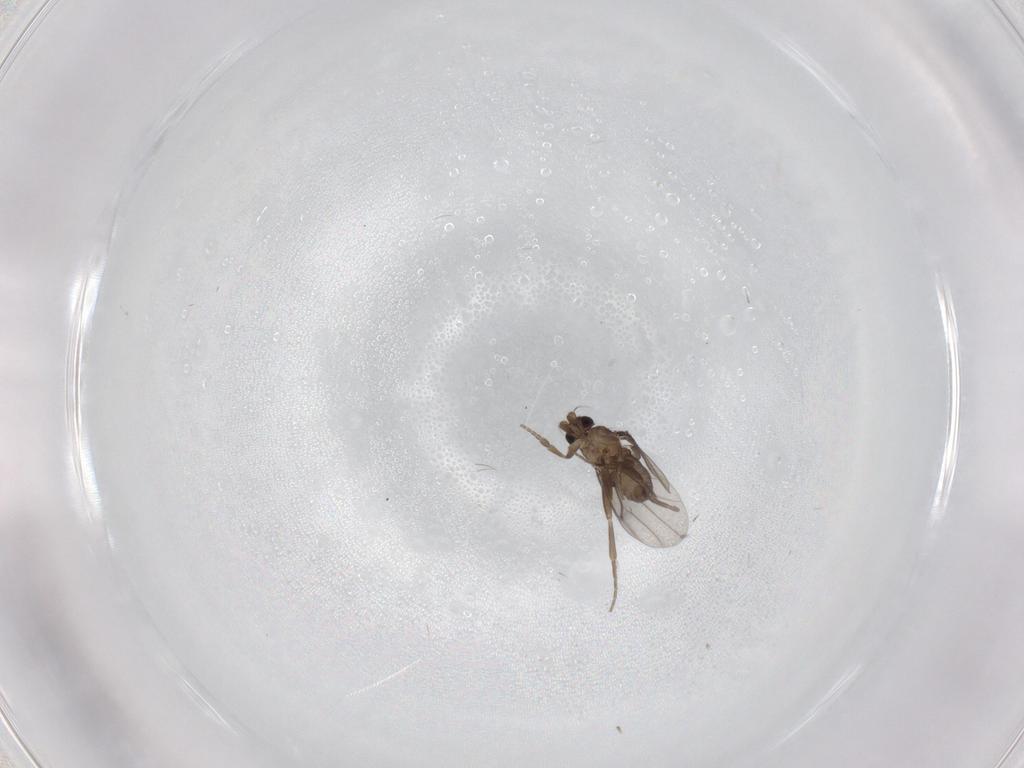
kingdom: Animalia
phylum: Arthropoda
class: Insecta
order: Diptera
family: Phoridae
